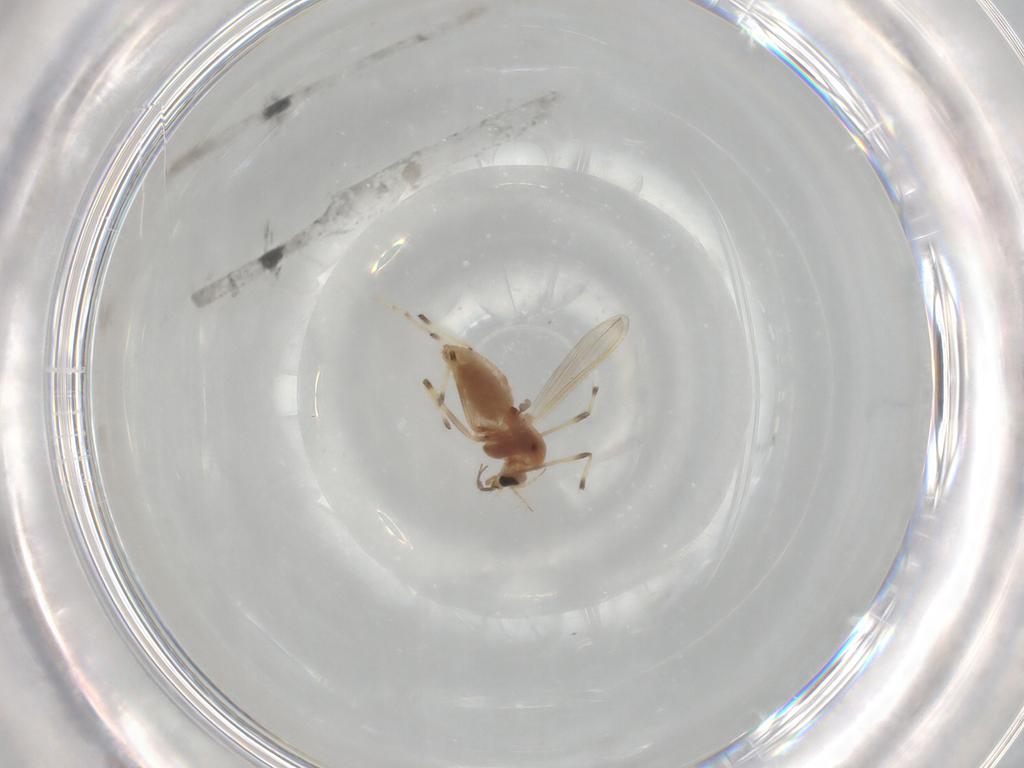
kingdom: Animalia
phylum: Arthropoda
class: Insecta
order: Diptera
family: Chironomidae
